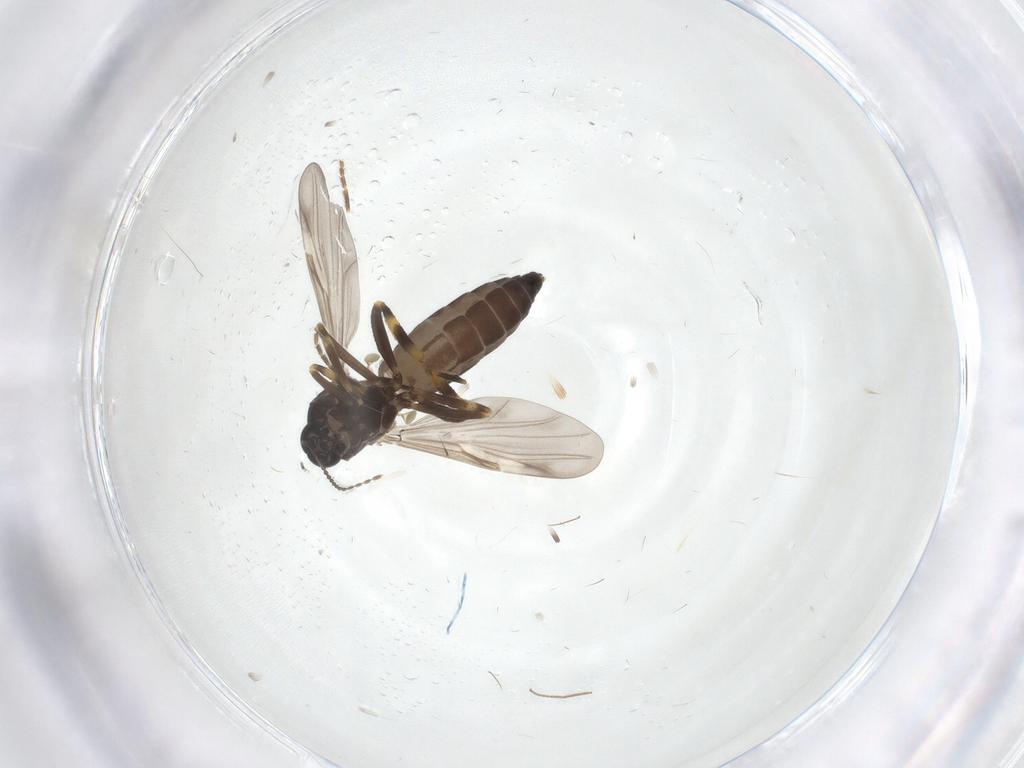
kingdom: Animalia
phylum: Arthropoda
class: Insecta
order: Diptera
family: Ceratopogonidae
